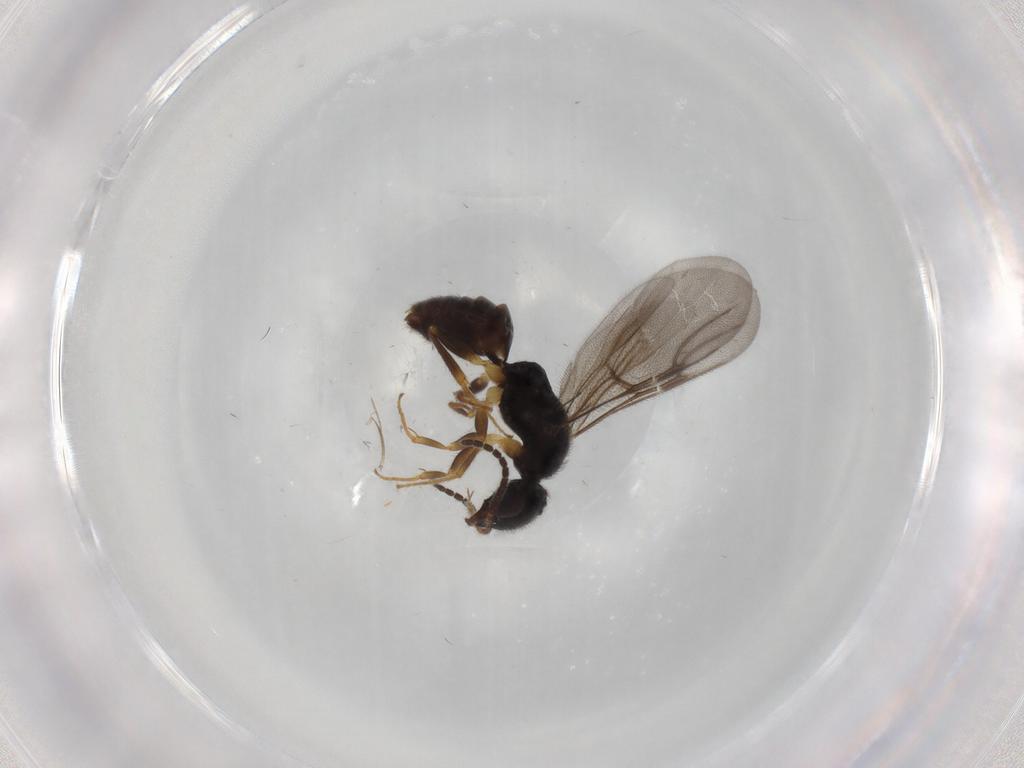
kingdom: Animalia
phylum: Arthropoda
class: Insecta
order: Hymenoptera
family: Bethylidae
